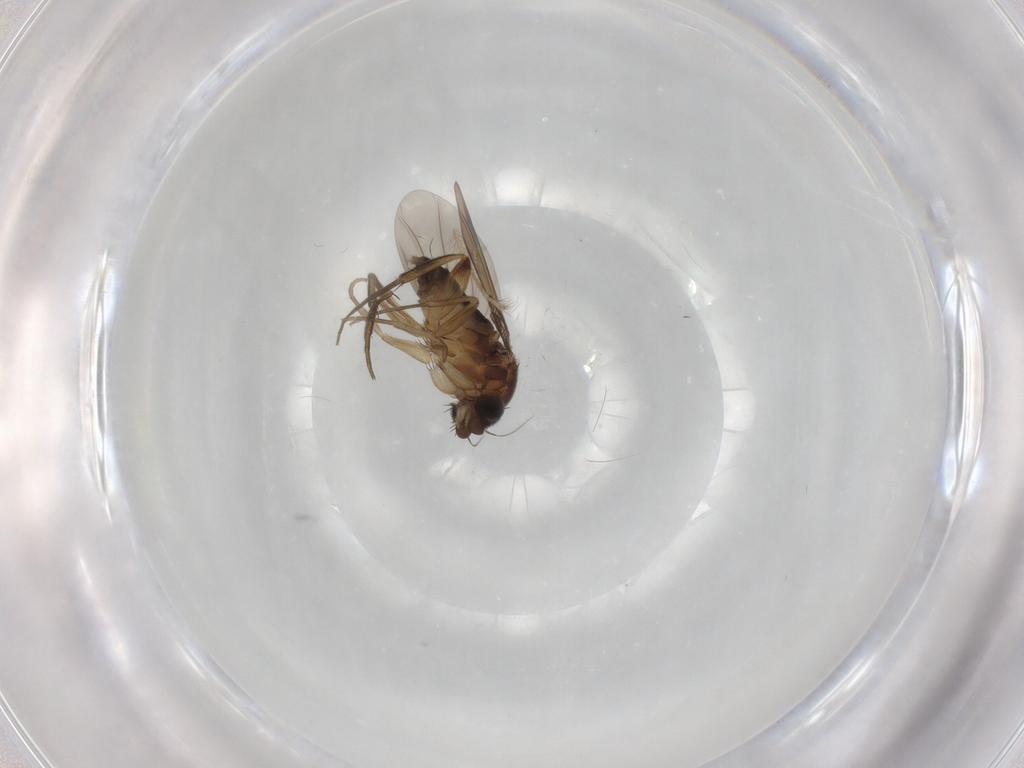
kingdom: Animalia
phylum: Arthropoda
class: Insecta
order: Diptera
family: Phoridae
